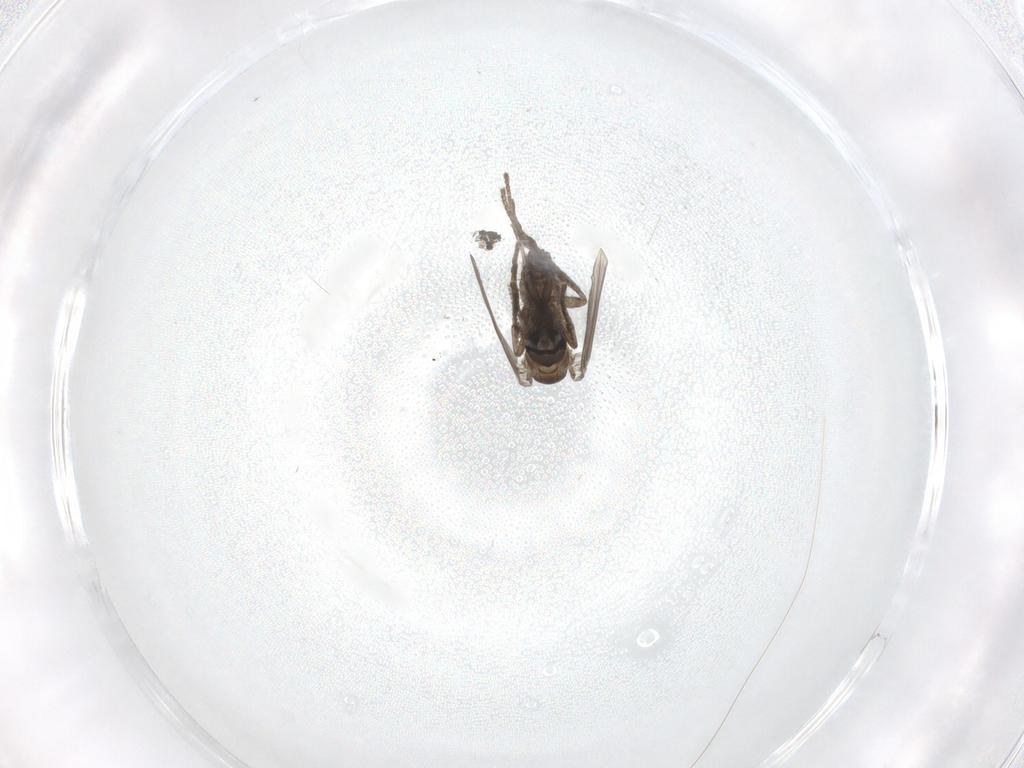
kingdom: Animalia
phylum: Arthropoda
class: Insecta
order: Diptera
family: Cecidomyiidae
